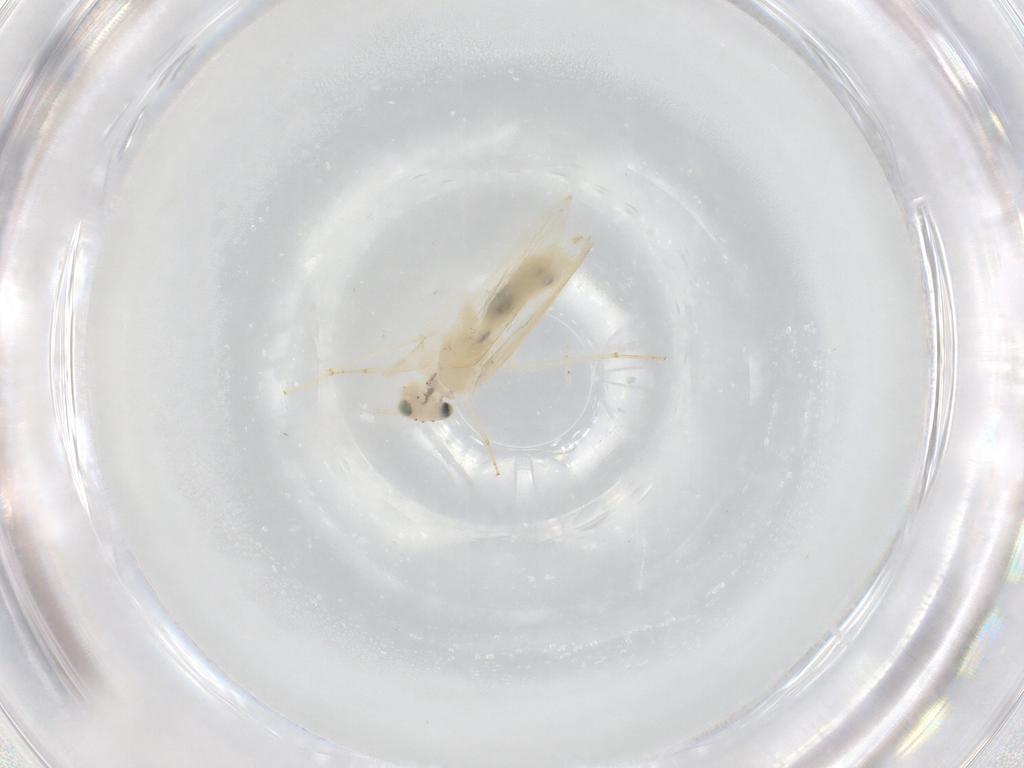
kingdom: Animalia
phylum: Arthropoda
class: Insecta
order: Psocodea
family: Lepidopsocidae
